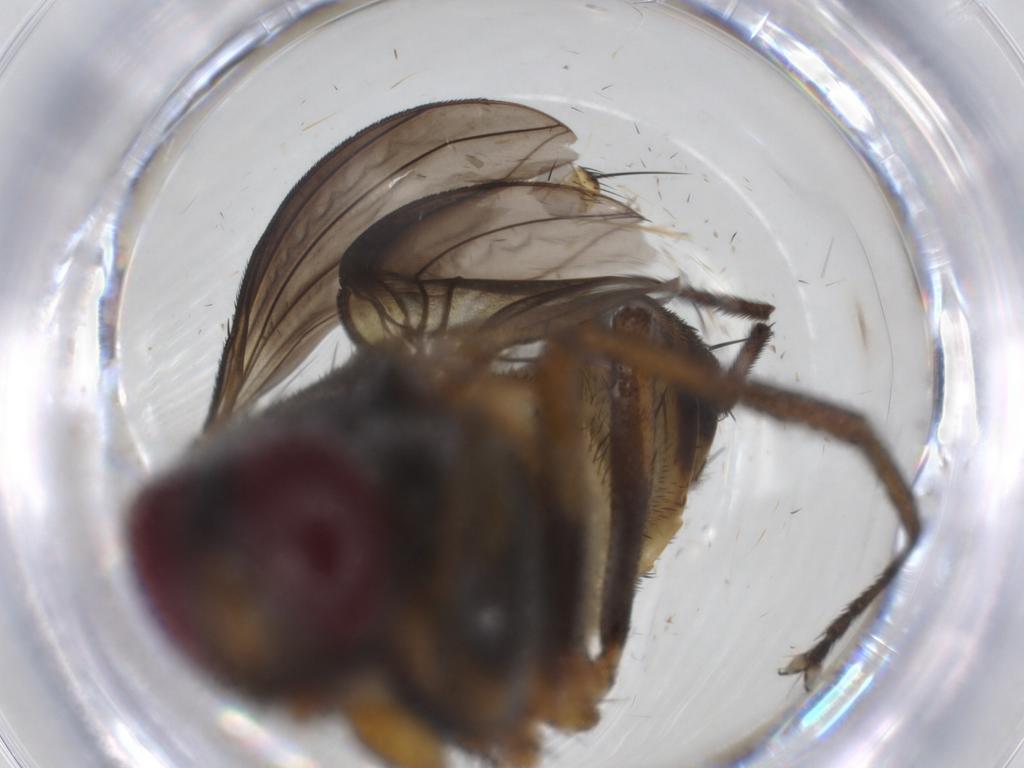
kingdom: Animalia
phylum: Arthropoda
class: Insecta
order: Diptera
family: Tachinidae
